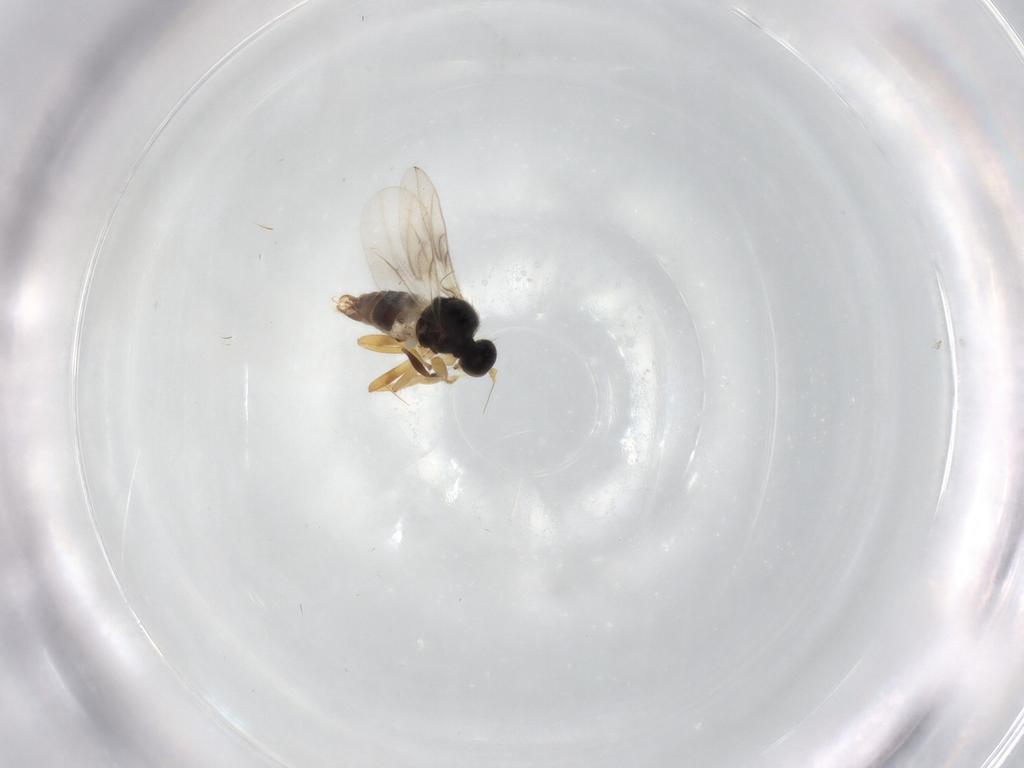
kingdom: Animalia
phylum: Arthropoda
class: Insecta
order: Diptera
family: Hybotidae
